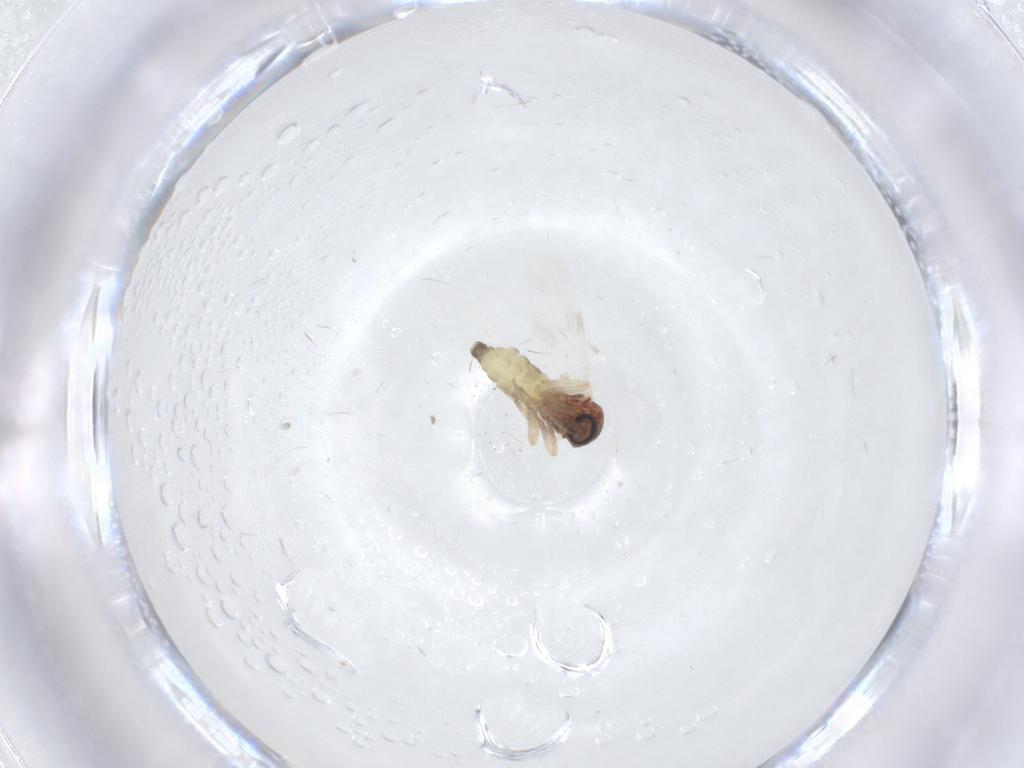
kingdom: Animalia
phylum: Arthropoda
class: Insecta
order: Diptera
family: Ceratopogonidae
